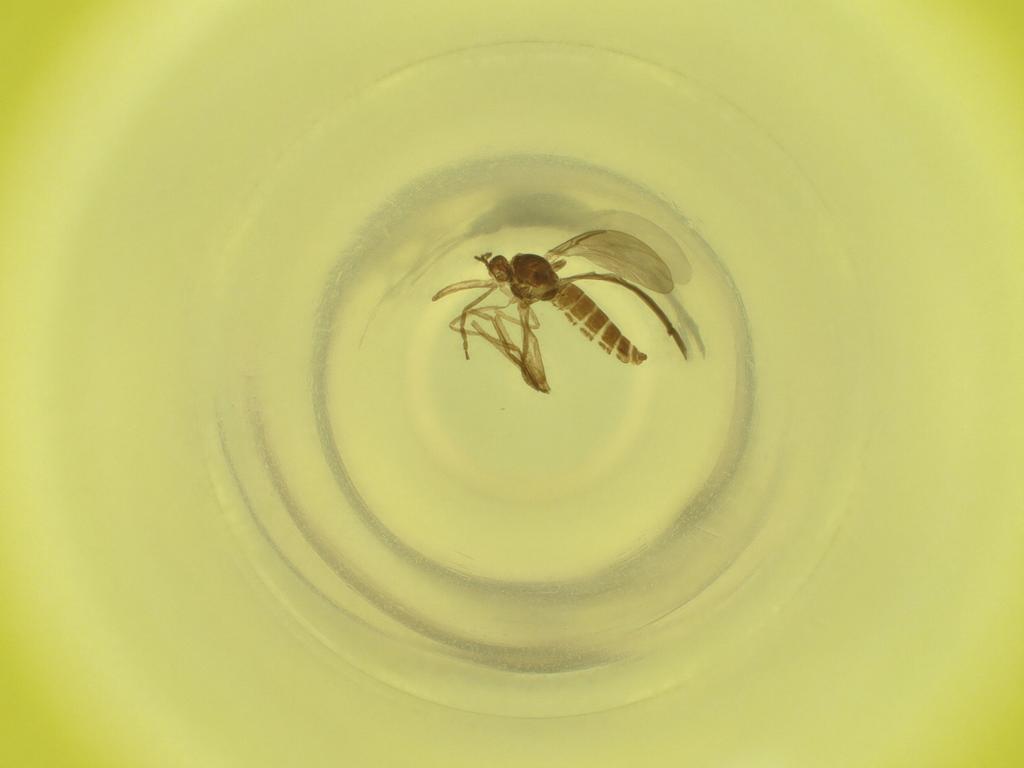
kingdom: Animalia
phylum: Arthropoda
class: Insecta
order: Diptera
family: Cecidomyiidae
